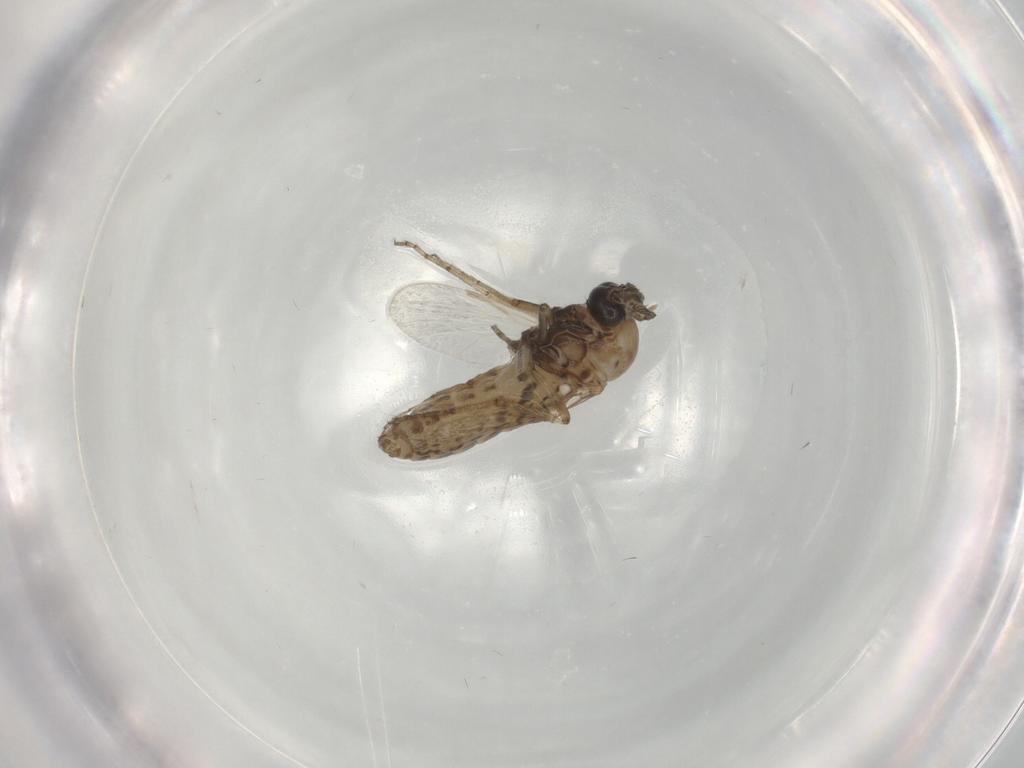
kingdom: Animalia
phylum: Arthropoda
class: Insecta
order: Diptera
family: Ceratopogonidae
